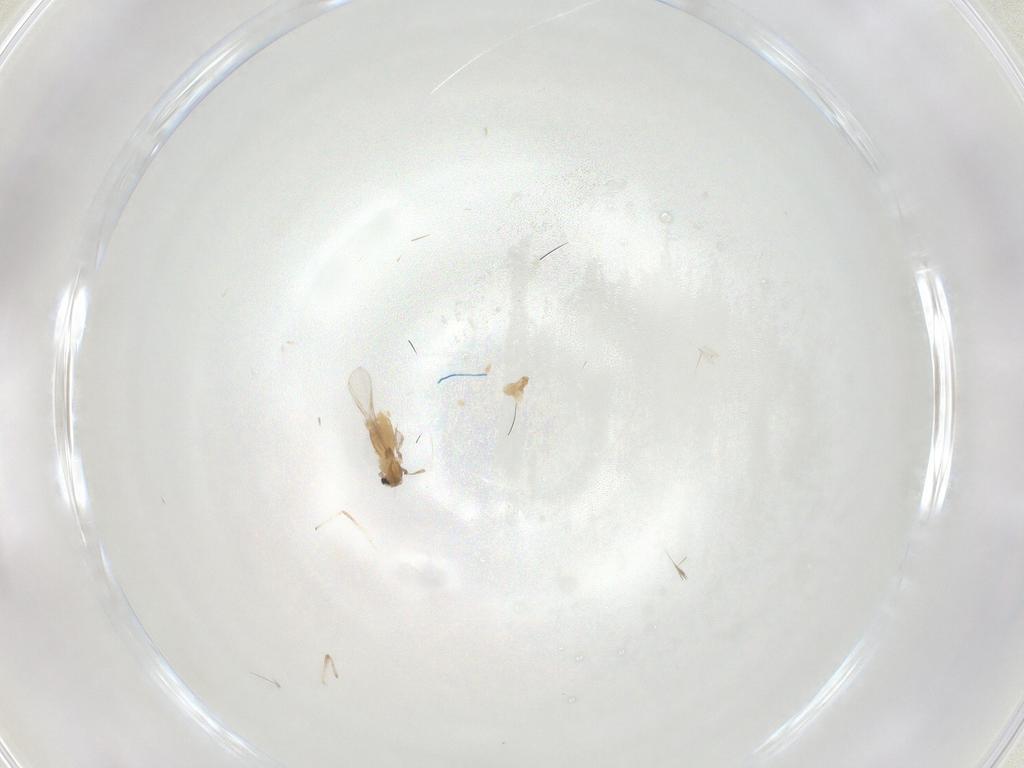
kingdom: Animalia
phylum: Arthropoda
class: Insecta
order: Diptera
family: Chironomidae
